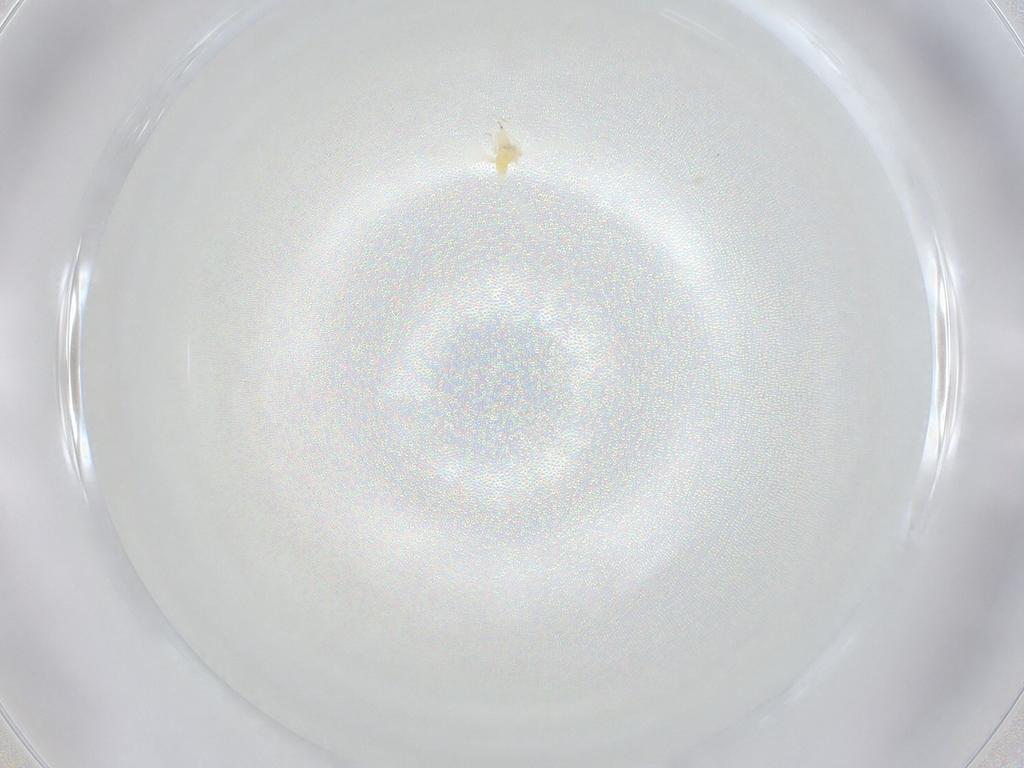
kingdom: Animalia
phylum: Arthropoda
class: Insecta
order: Hemiptera
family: Aleyrodidae
